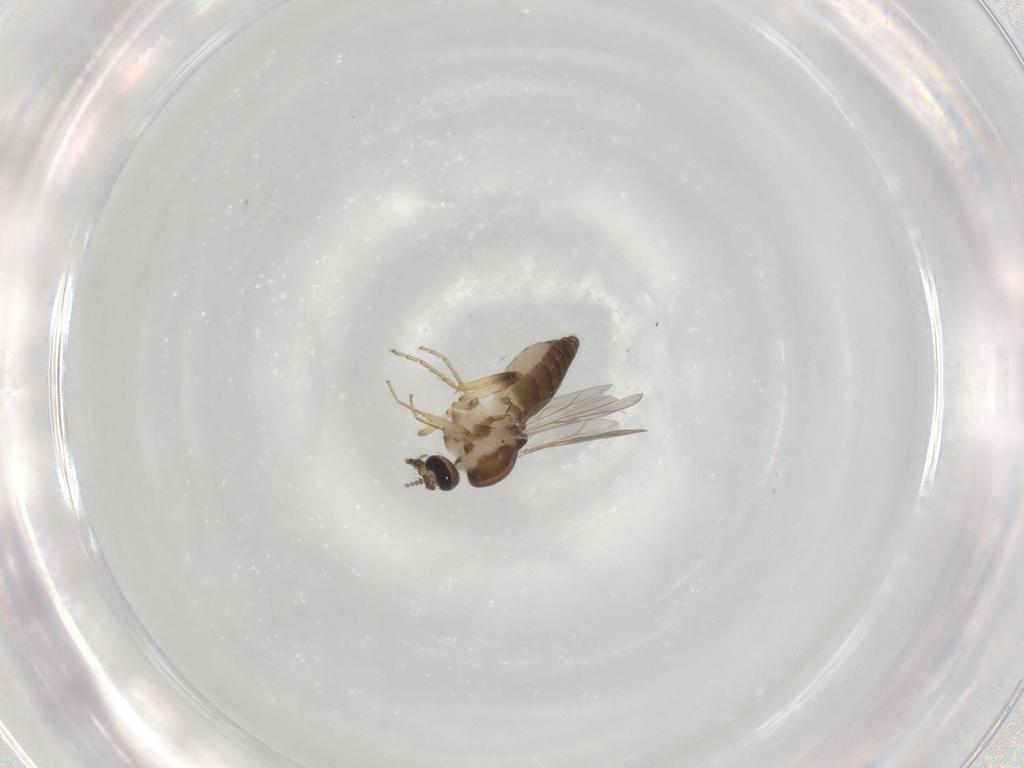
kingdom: Animalia
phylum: Arthropoda
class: Insecta
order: Diptera
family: Ceratopogonidae
